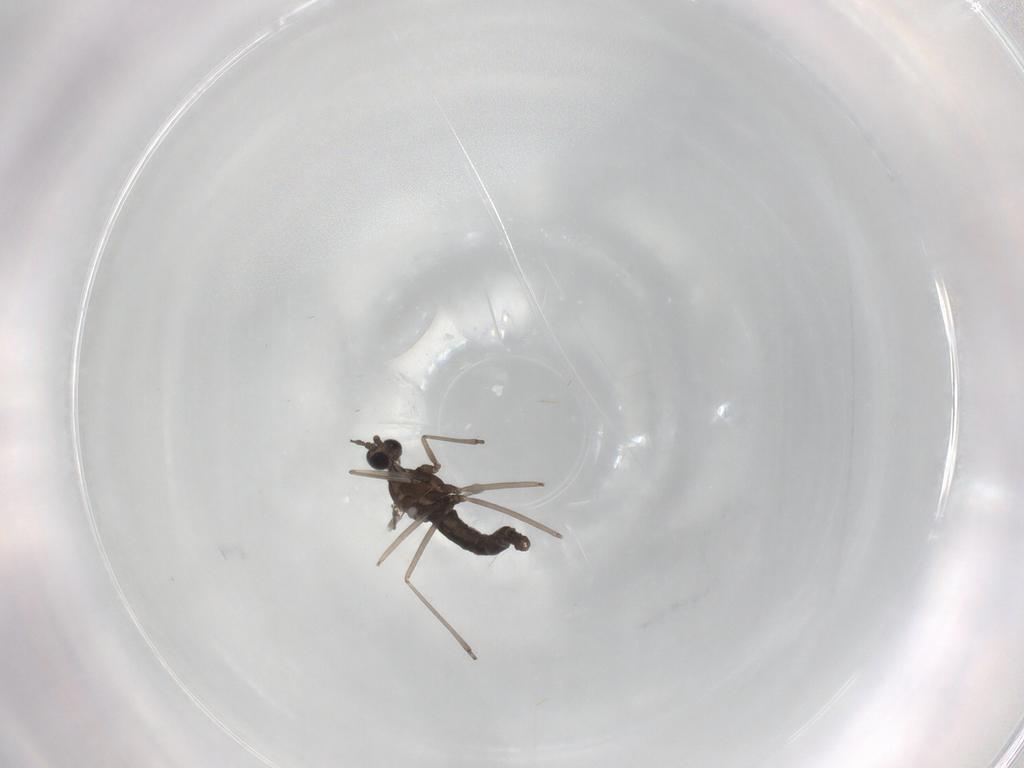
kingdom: Animalia
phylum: Arthropoda
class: Insecta
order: Diptera
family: Cecidomyiidae
